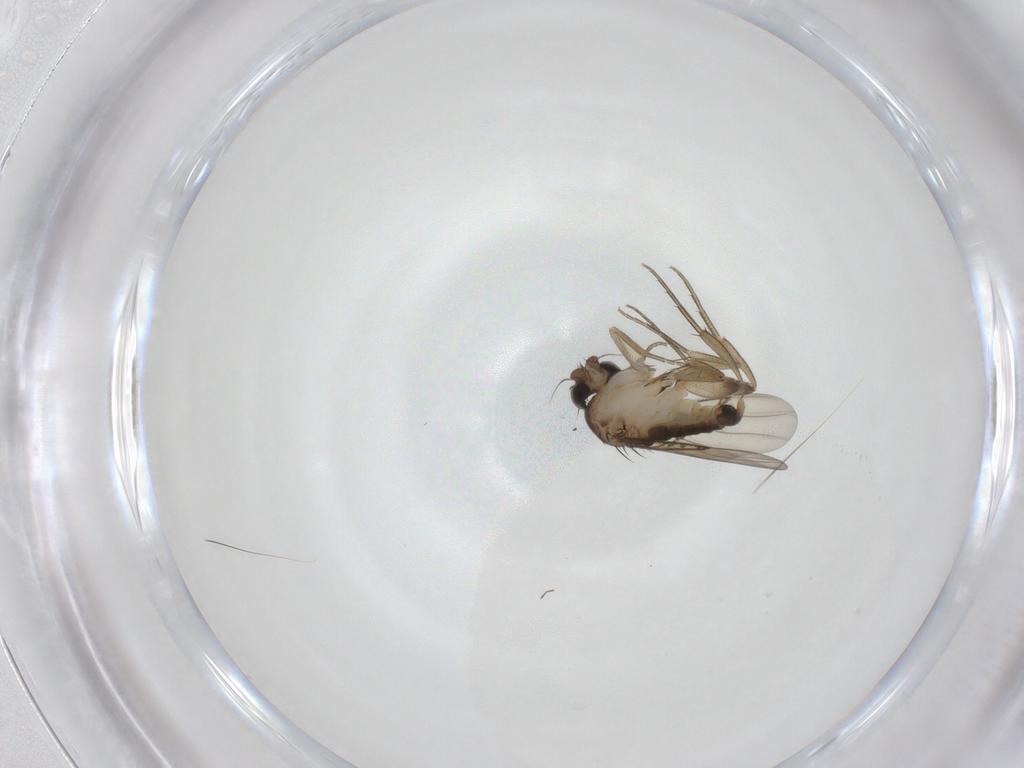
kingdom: Animalia
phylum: Arthropoda
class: Insecta
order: Diptera
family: Phoridae
